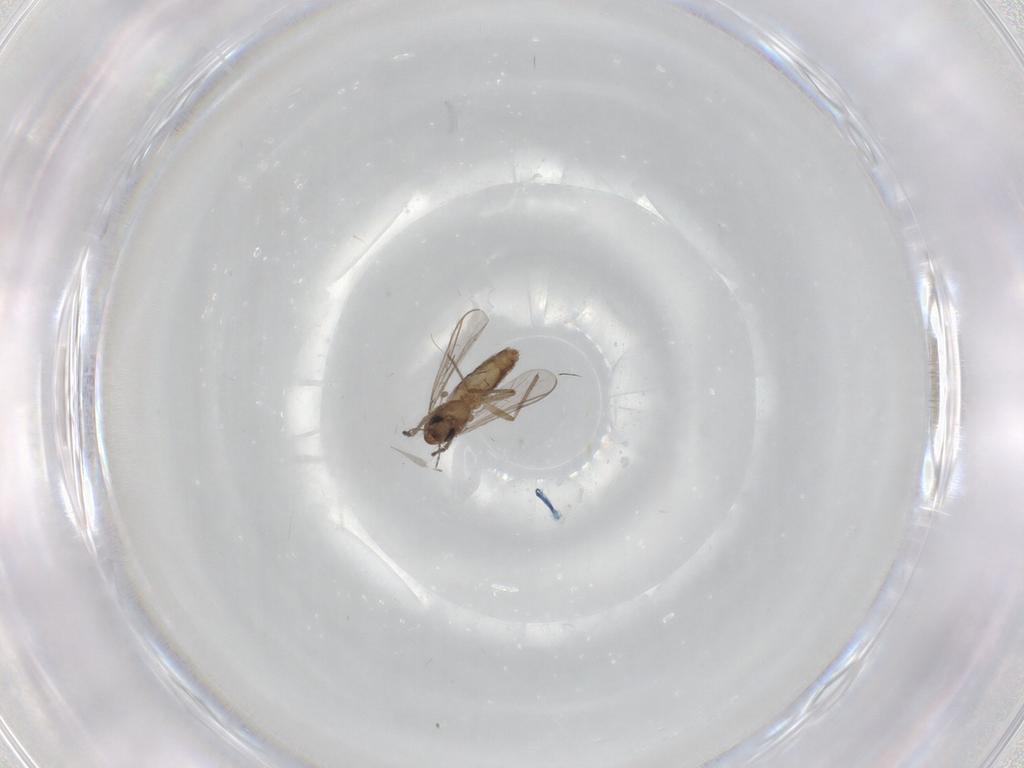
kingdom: Animalia
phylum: Arthropoda
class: Insecta
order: Diptera
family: Chironomidae
